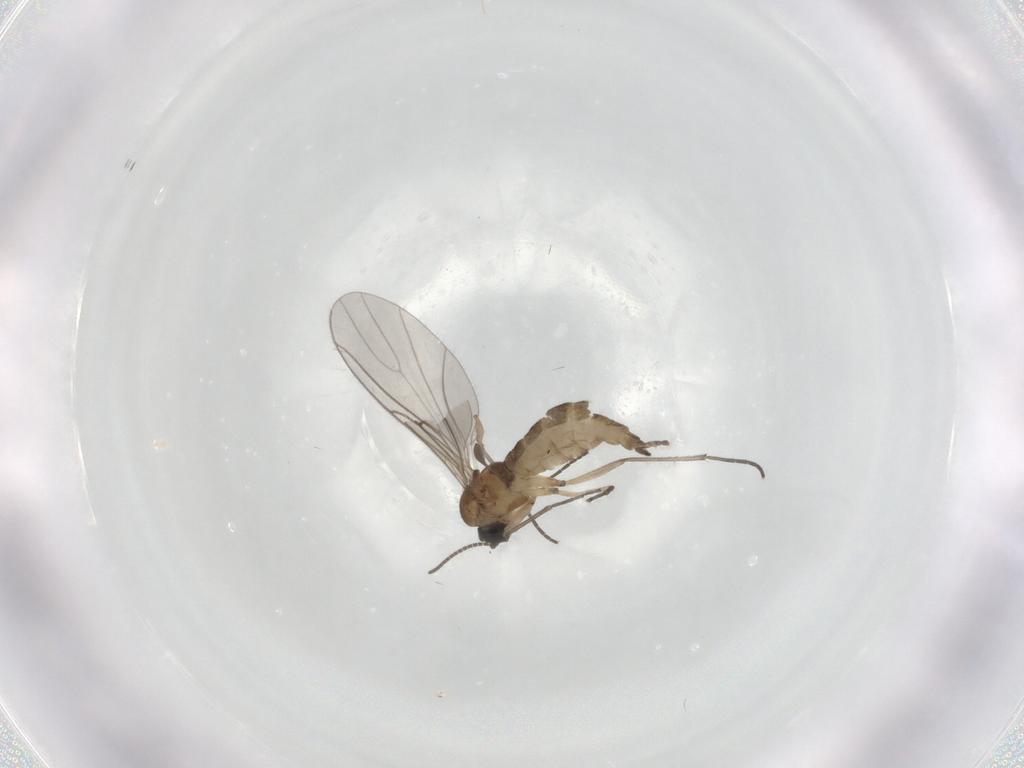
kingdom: Animalia
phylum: Arthropoda
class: Insecta
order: Diptera
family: Sciaridae
